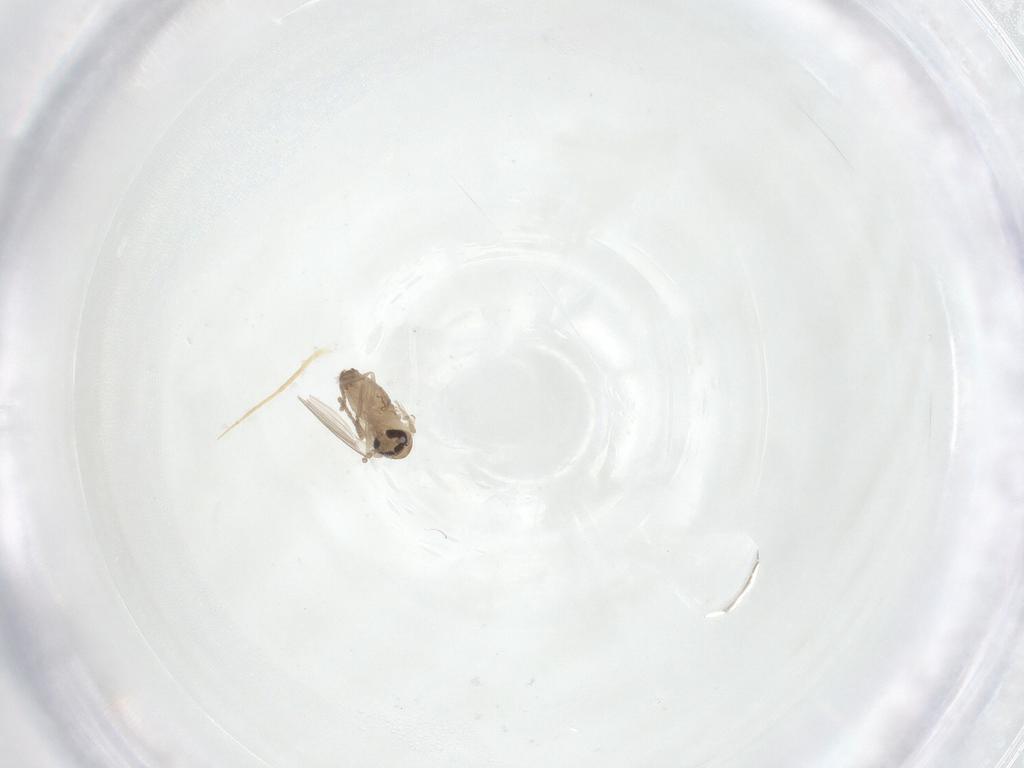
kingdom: Animalia
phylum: Arthropoda
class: Insecta
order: Diptera
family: Psychodidae
